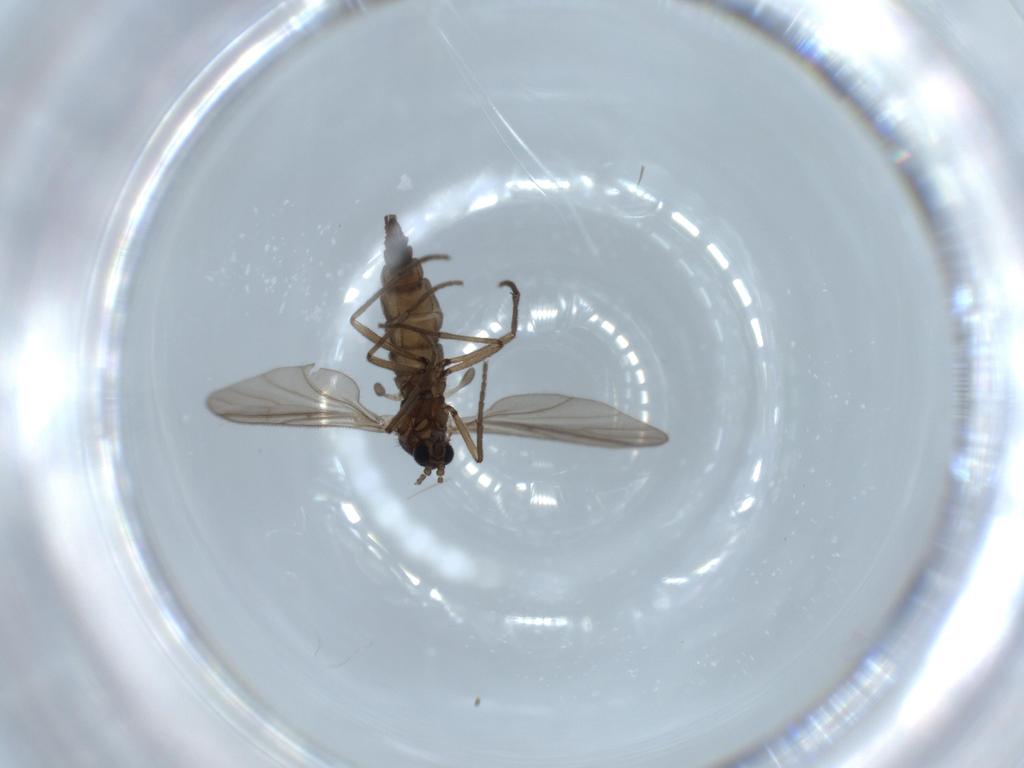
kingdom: Animalia
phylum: Arthropoda
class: Insecta
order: Diptera
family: Sciaridae
